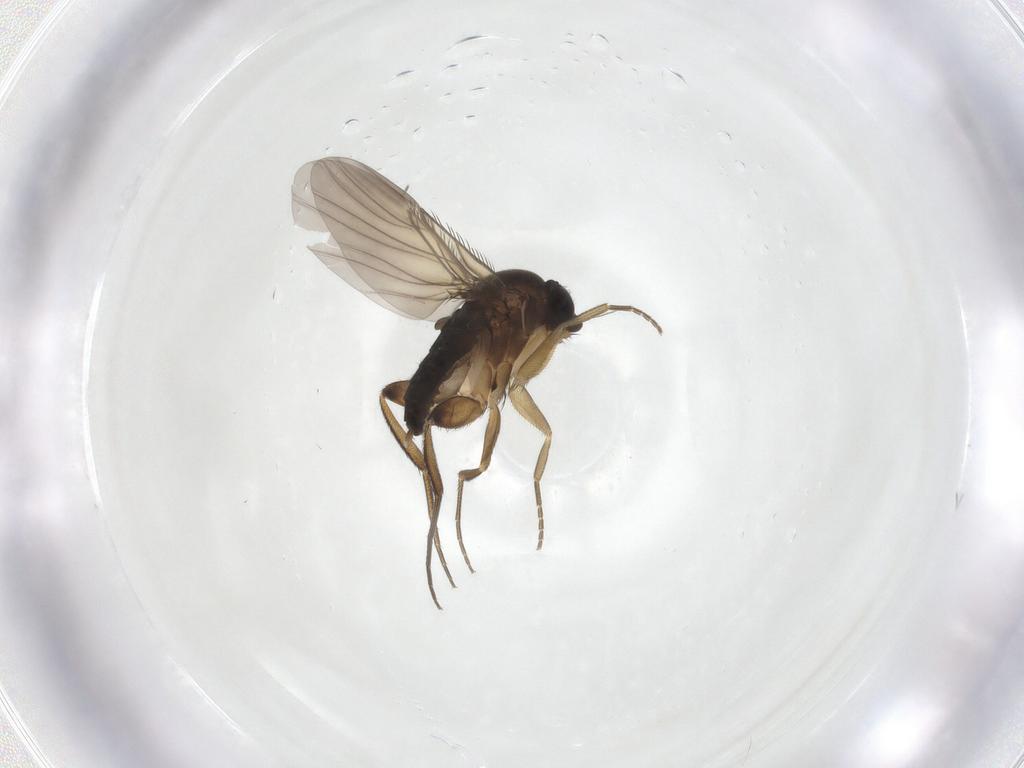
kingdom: Animalia
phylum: Arthropoda
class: Insecta
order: Diptera
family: Phoridae
